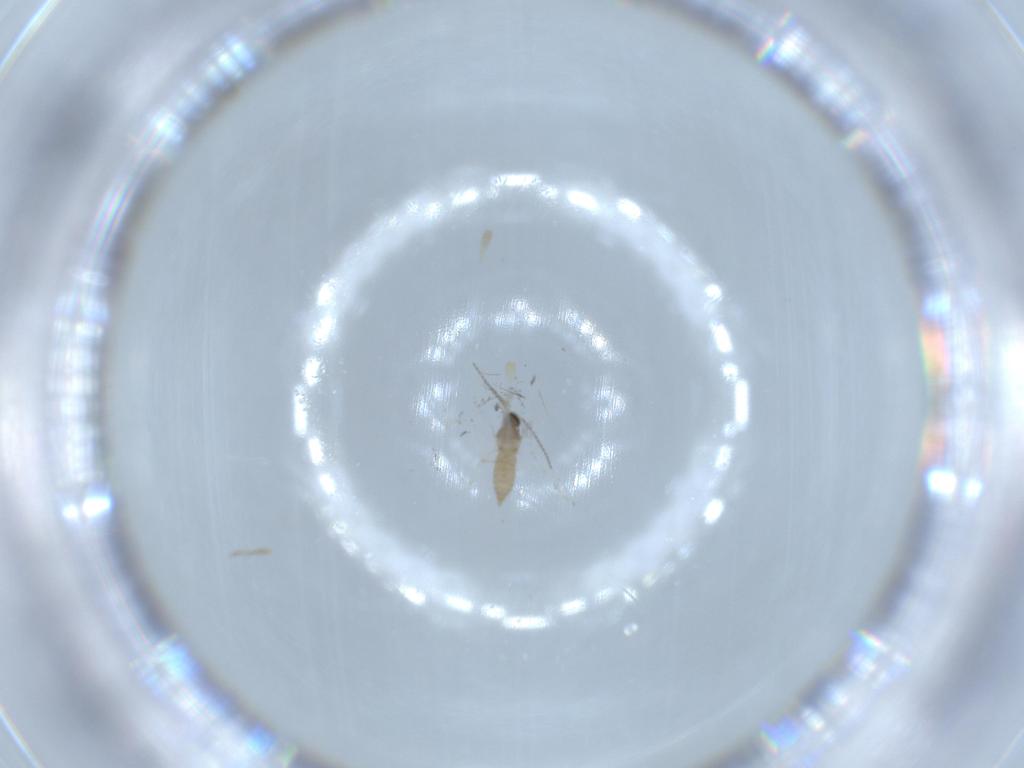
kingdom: Animalia
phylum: Arthropoda
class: Insecta
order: Diptera
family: Cecidomyiidae
